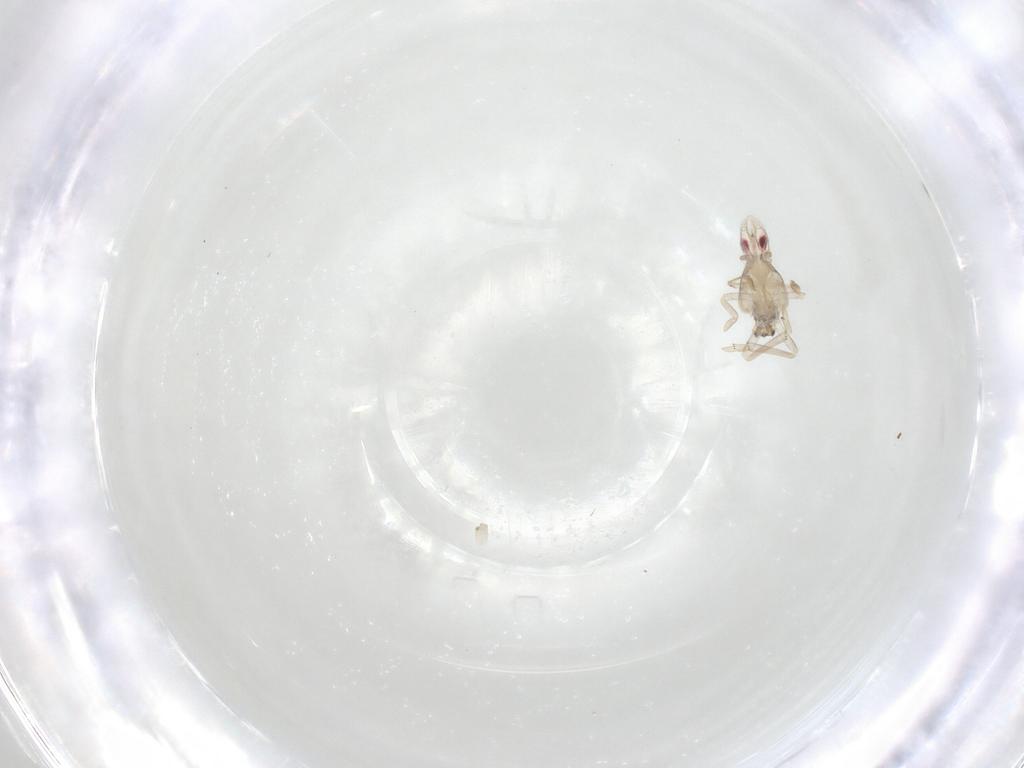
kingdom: Animalia
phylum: Arthropoda
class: Insecta
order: Hemiptera
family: Tropiduchidae
